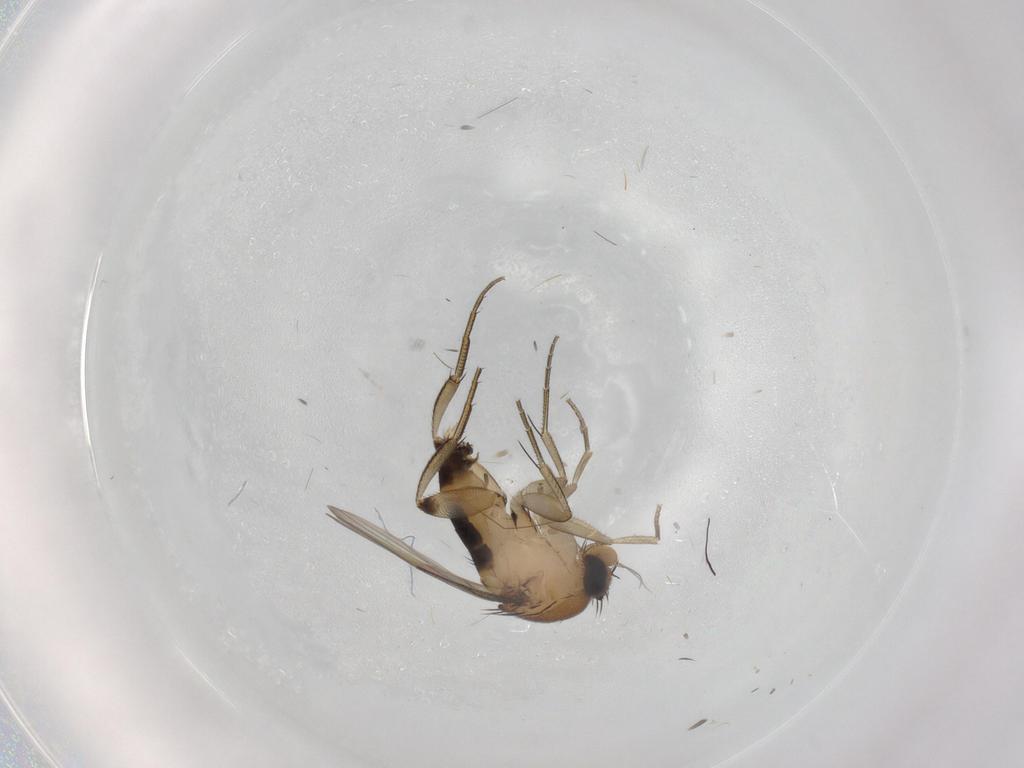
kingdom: Animalia
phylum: Arthropoda
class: Insecta
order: Diptera
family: Phoridae
